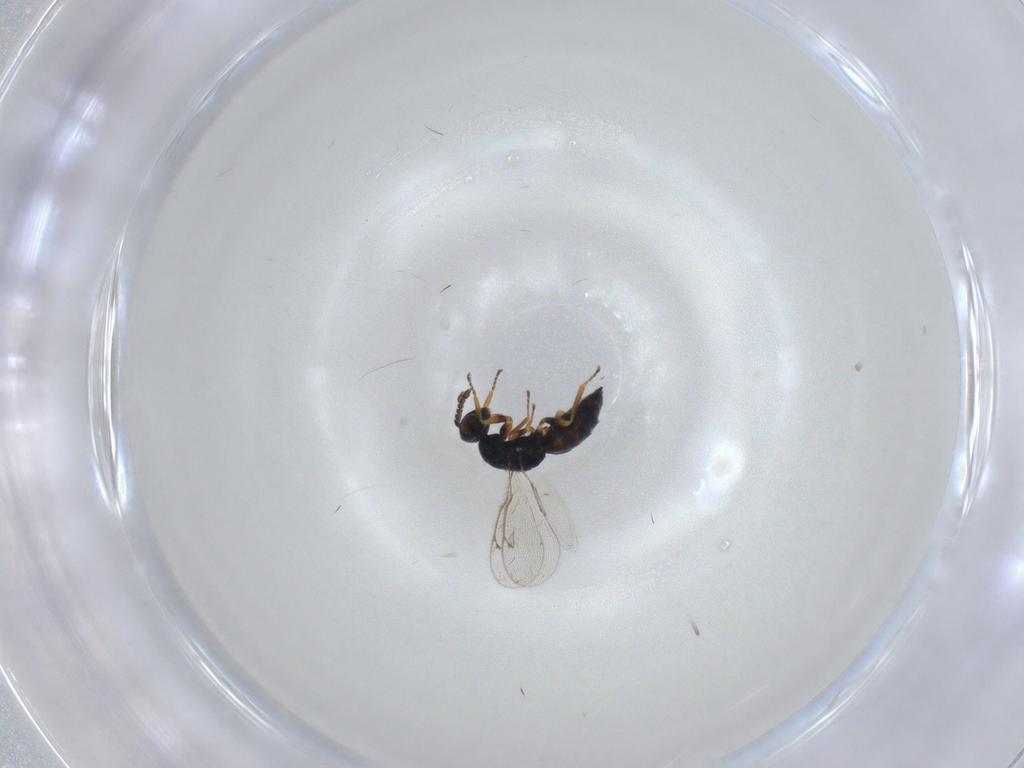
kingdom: Animalia
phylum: Arthropoda
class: Insecta
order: Hymenoptera
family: Eulophidae
